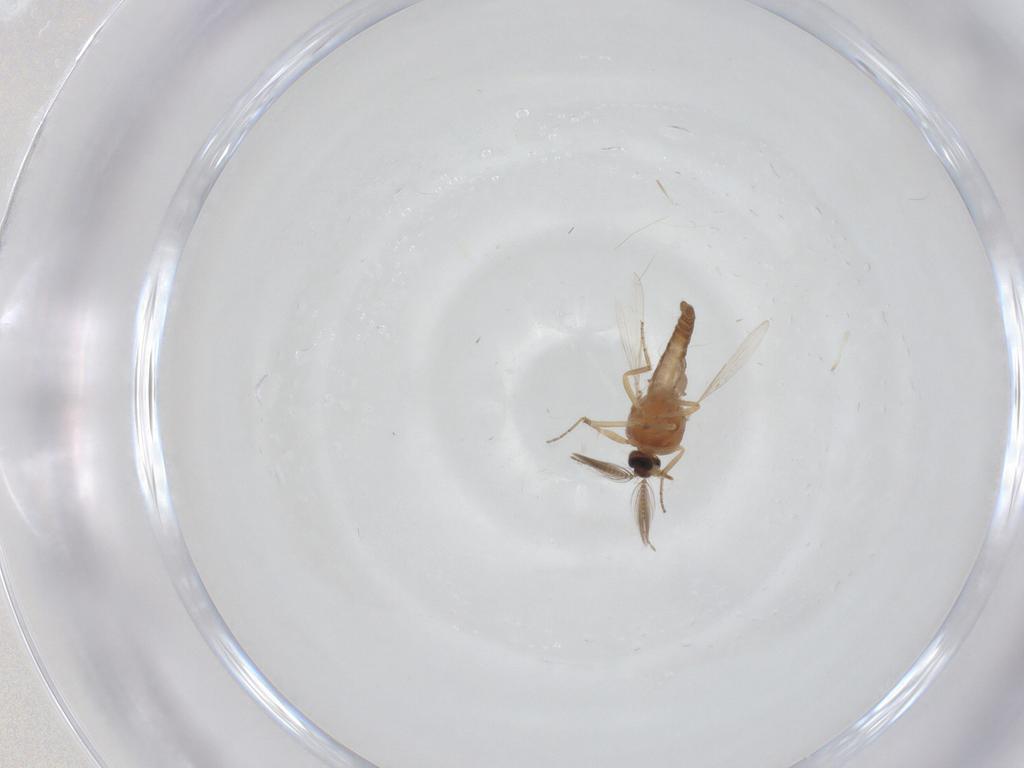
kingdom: Animalia
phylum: Arthropoda
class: Insecta
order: Diptera
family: Ceratopogonidae
